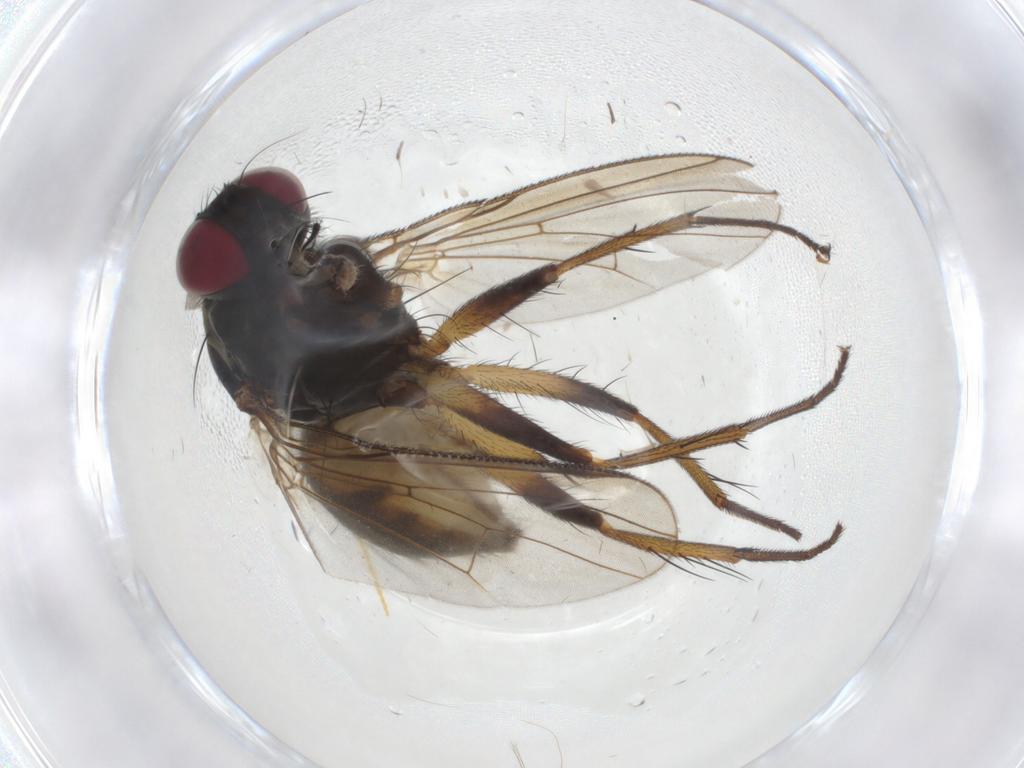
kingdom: Animalia
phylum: Arthropoda
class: Insecta
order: Diptera
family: Muscidae
